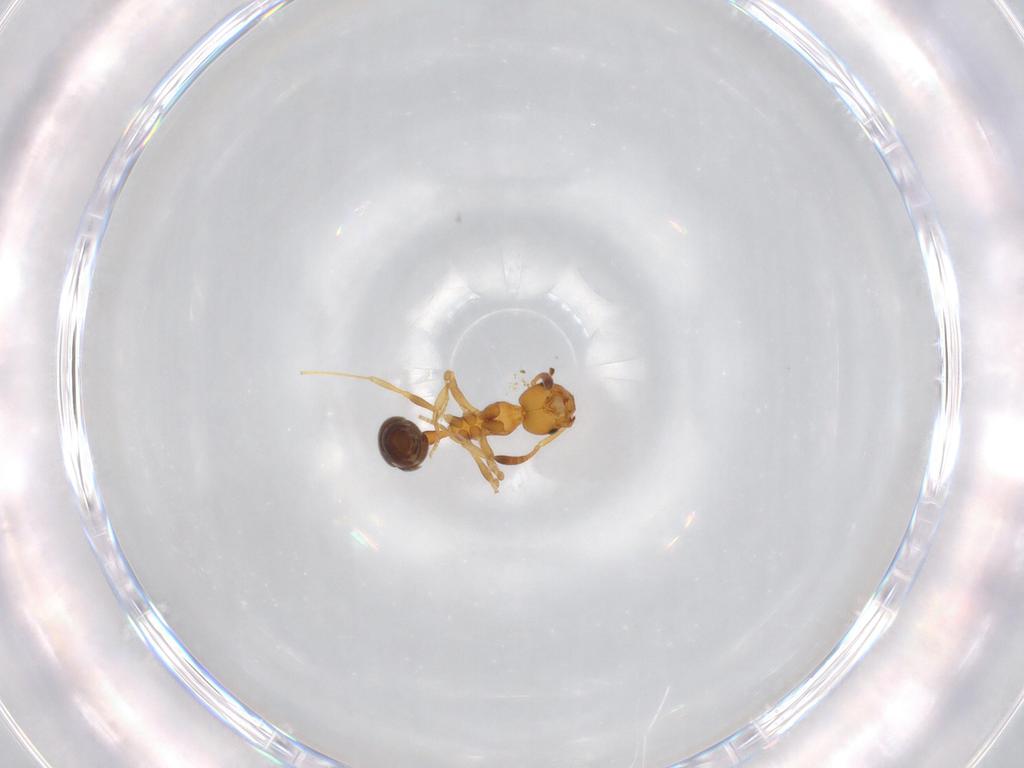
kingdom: Animalia
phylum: Arthropoda
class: Insecta
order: Hymenoptera
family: Formicidae
